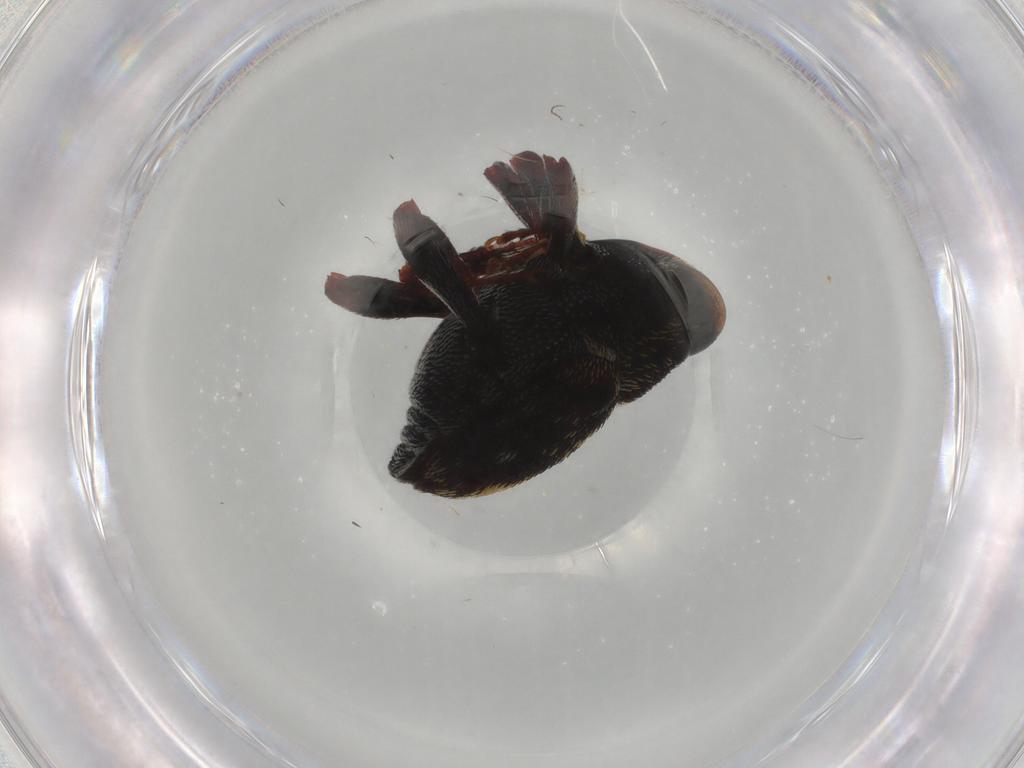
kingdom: Animalia
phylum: Arthropoda
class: Insecta
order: Coleoptera
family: Curculionidae
